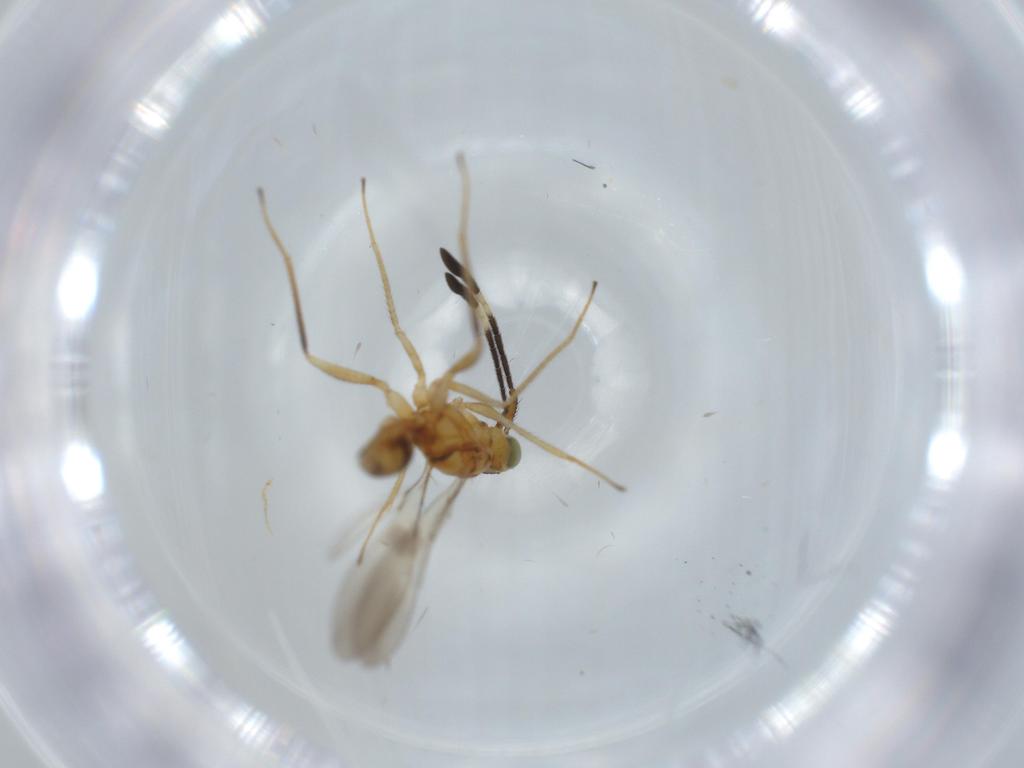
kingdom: Animalia
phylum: Arthropoda
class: Insecta
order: Hymenoptera
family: Mymaridae
